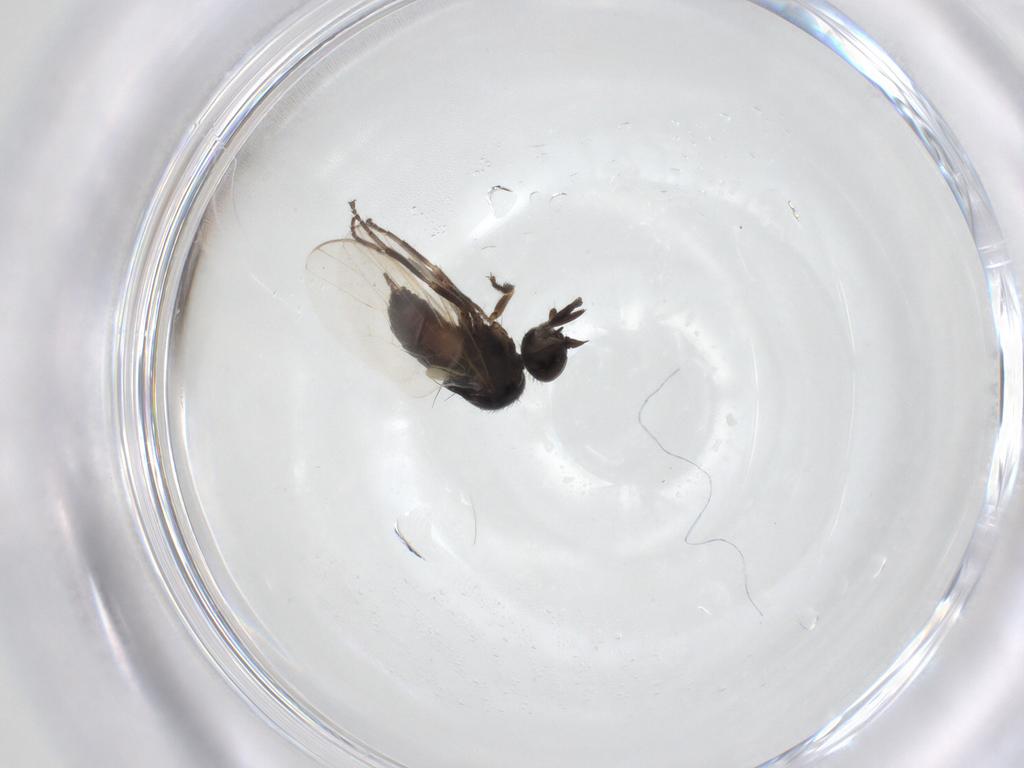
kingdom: Animalia
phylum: Arthropoda
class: Insecta
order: Diptera
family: Hybotidae
